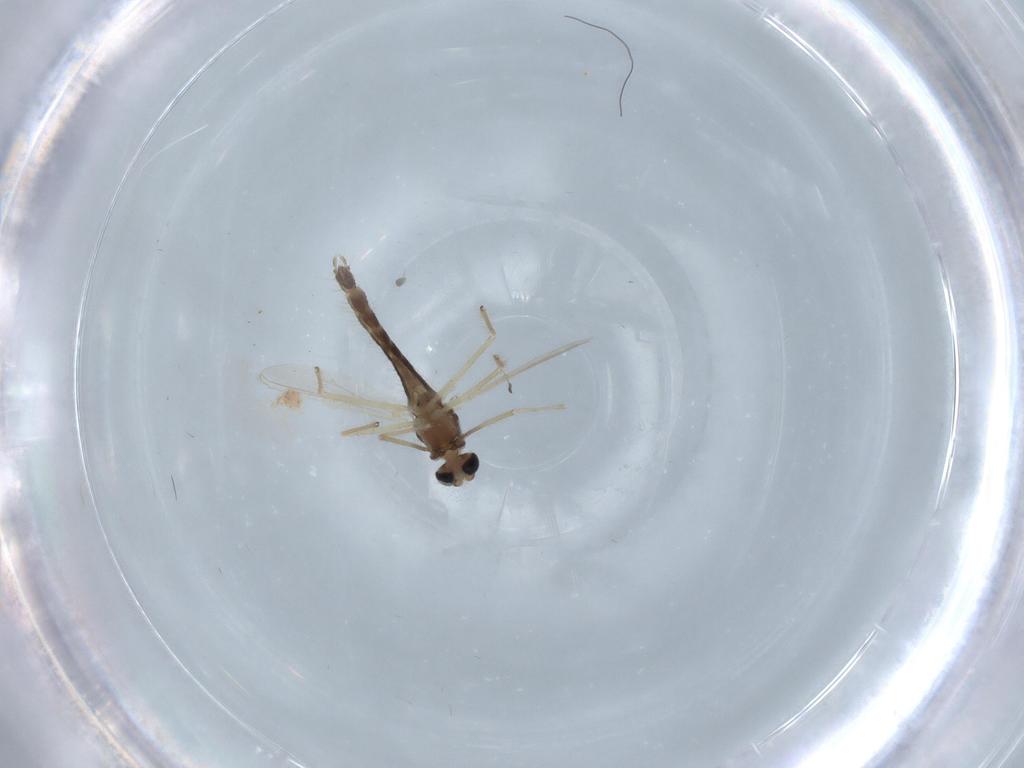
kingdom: Animalia
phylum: Arthropoda
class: Insecta
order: Diptera
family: Chironomidae
